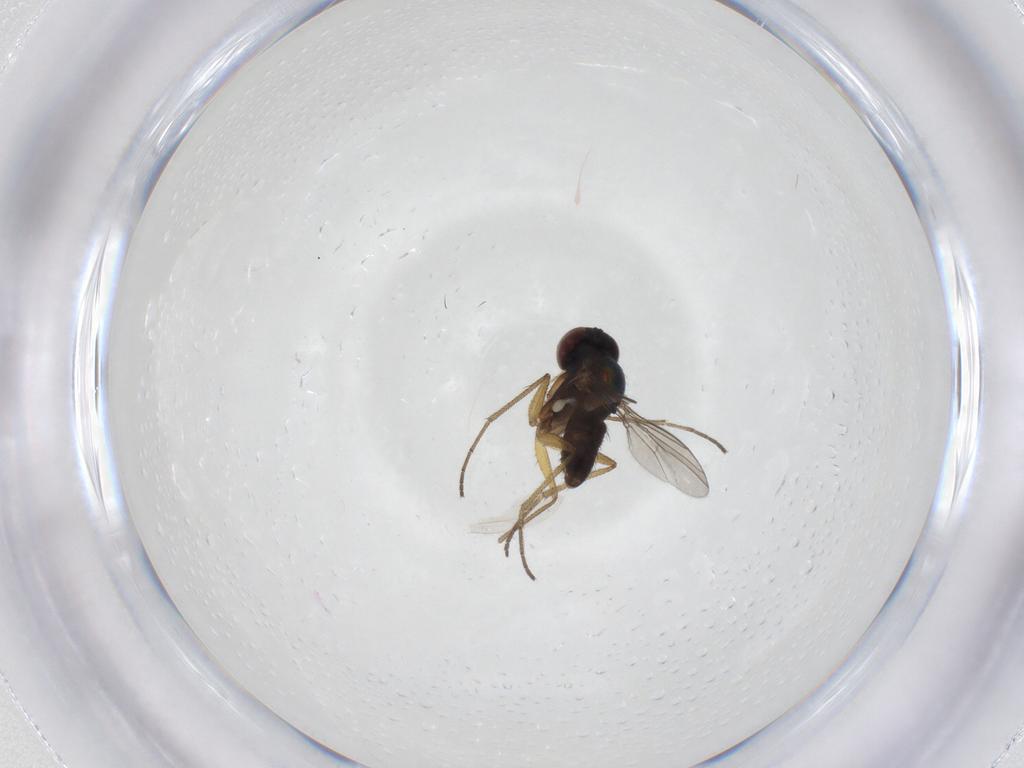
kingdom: Animalia
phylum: Arthropoda
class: Insecta
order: Diptera
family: Dolichopodidae
